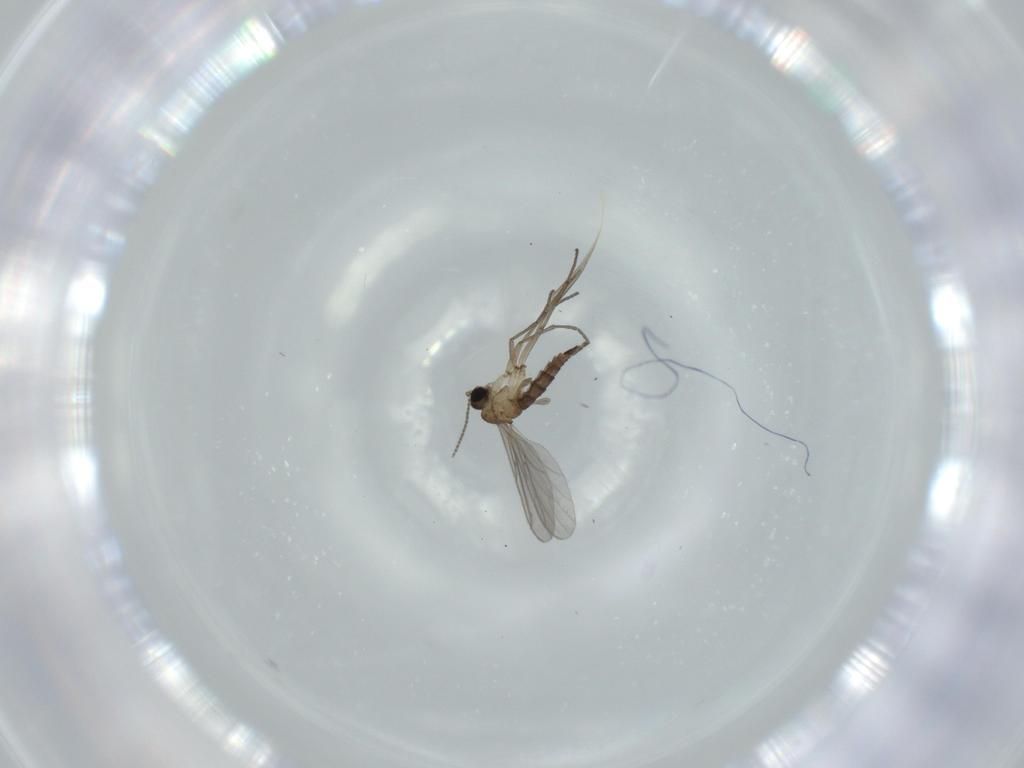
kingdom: Animalia
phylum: Arthropoda
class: Insecta
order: Diptera
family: Sciaridae
